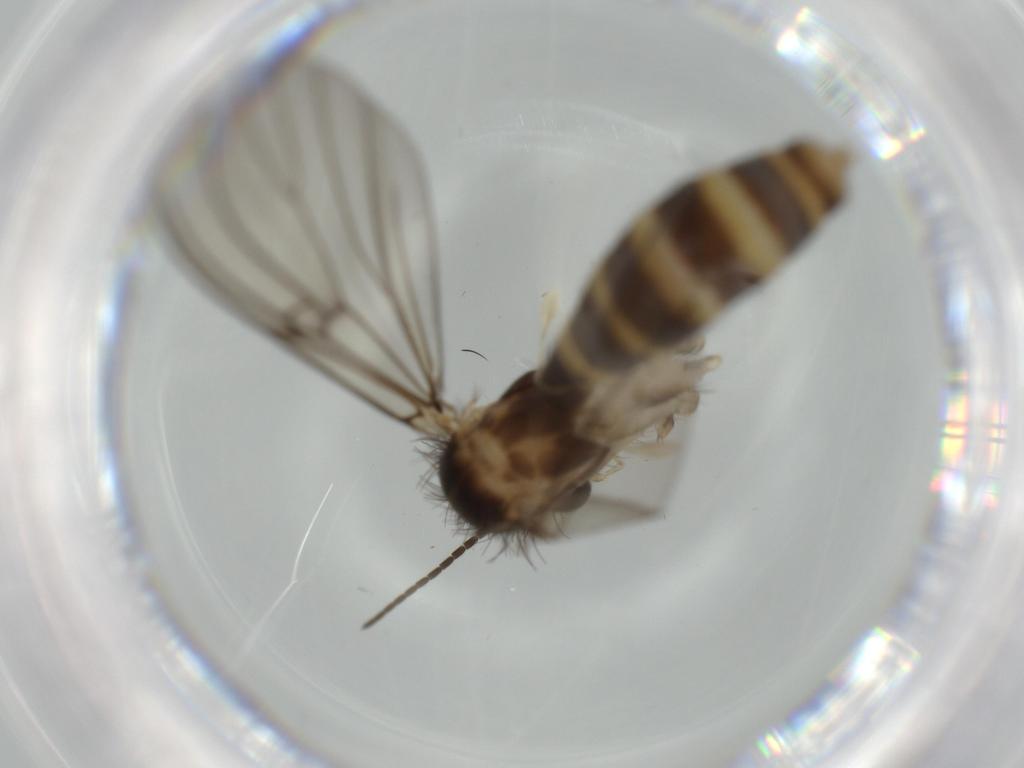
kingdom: Animalia
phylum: Arthropoda
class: Insecta
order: Diptera
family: Sciaridae
